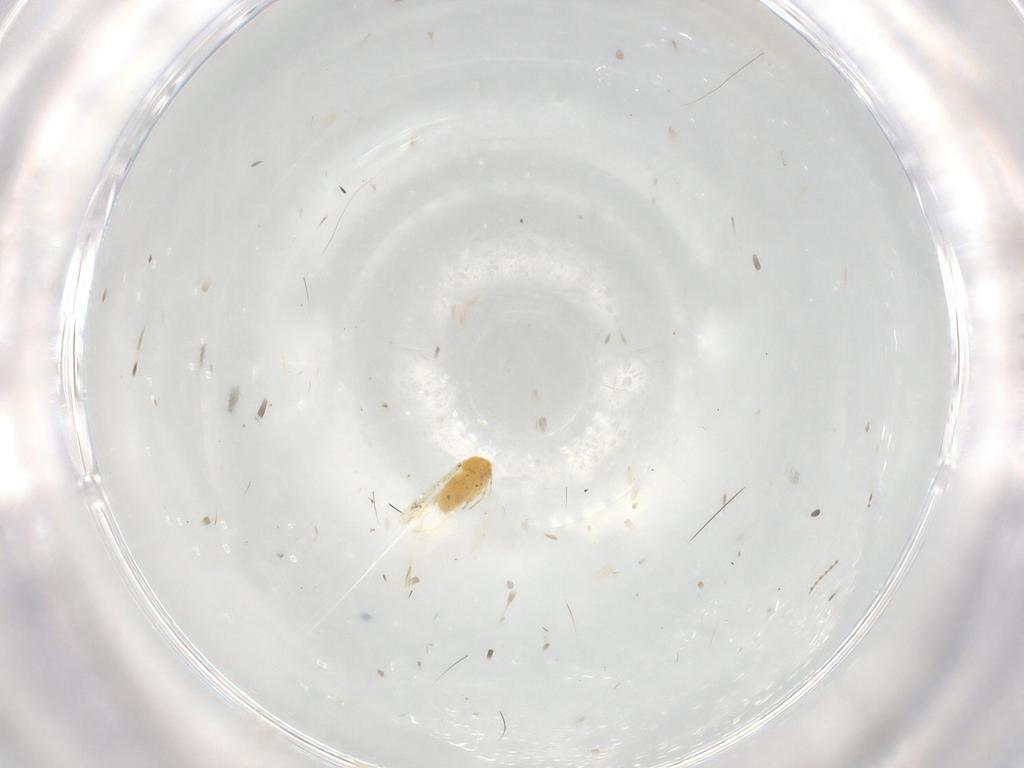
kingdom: Animalia
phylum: Arthropoda
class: Insecta
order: Hemiptera
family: Aleyrodidae
